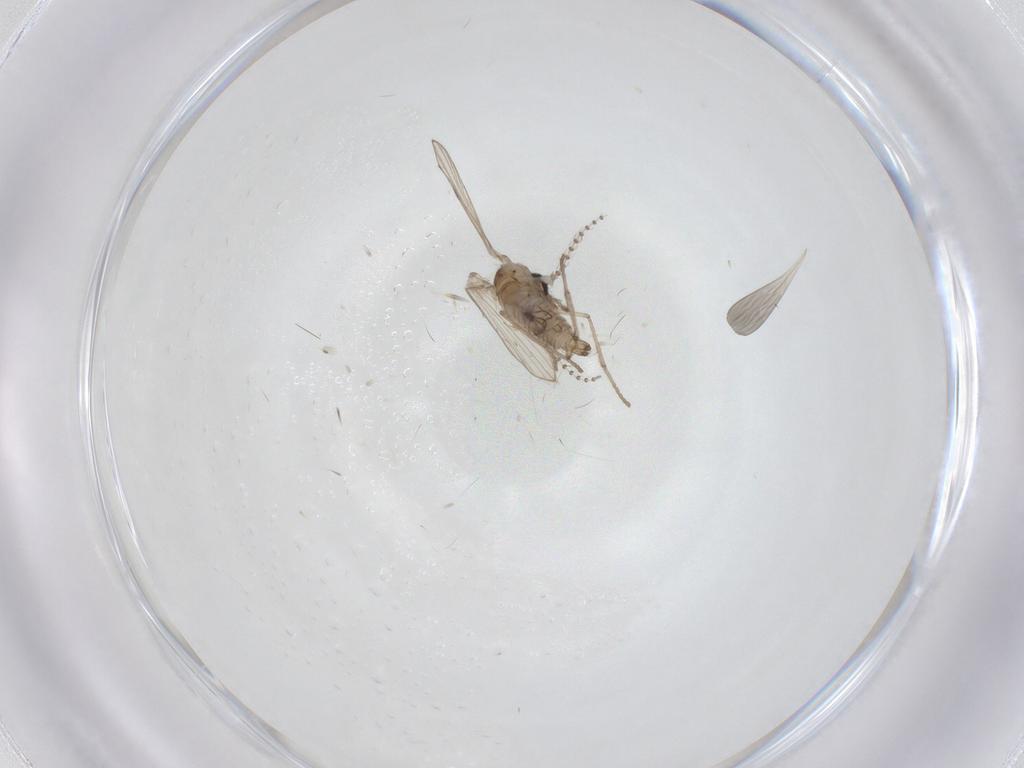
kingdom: Animalia
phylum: Arthropoda
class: Insecta
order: Diptera
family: Psychodidae
